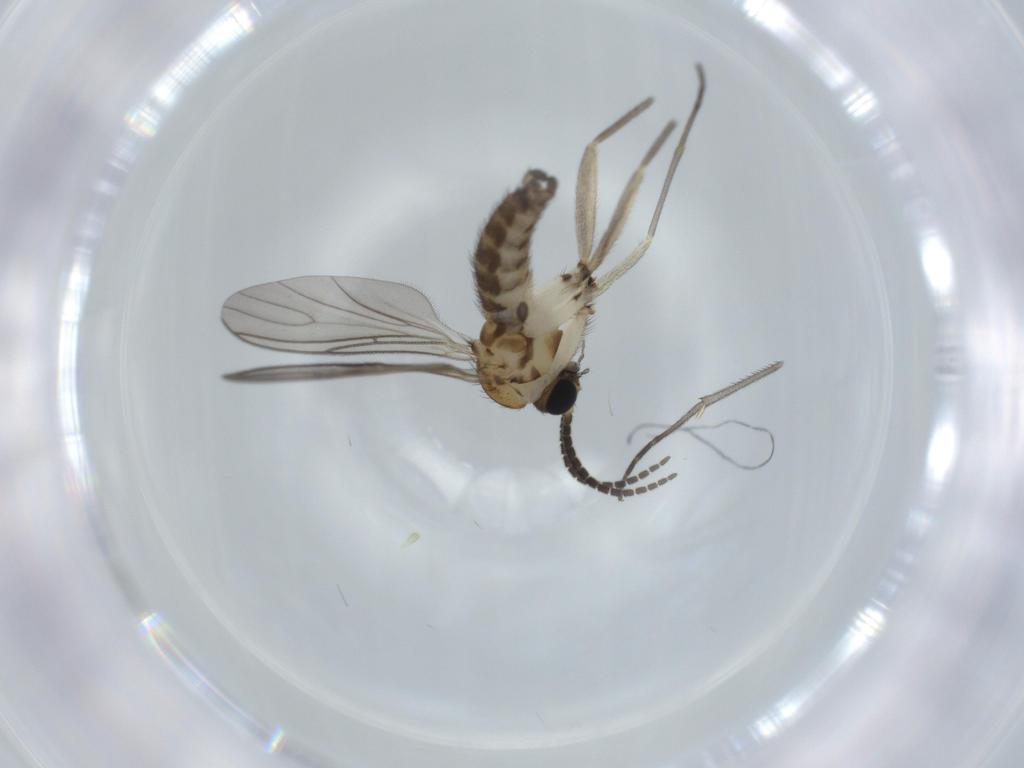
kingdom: Animalia
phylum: Arthropoda
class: Insecta
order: Diptera
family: Sciaridae
